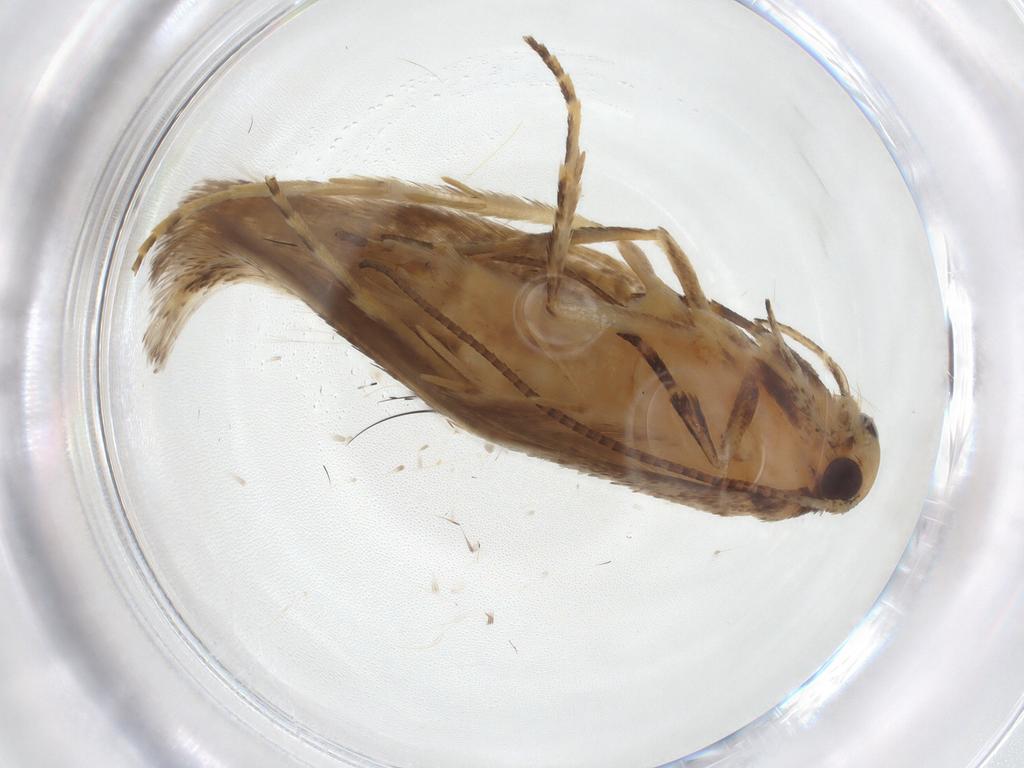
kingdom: Animalia
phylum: Arthropoda
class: Insecta
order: Lepidoptera
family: Gelechiidae
